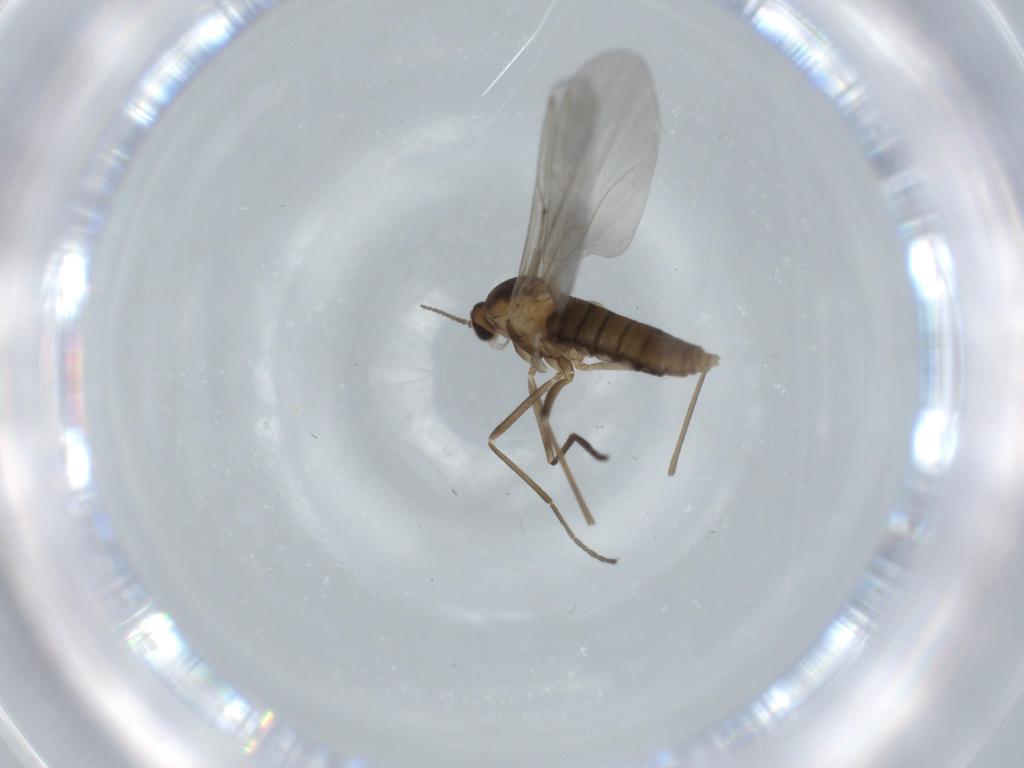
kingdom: Animalia
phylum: Arthropoda
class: Insecta
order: Diptera
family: Cecidomyiidae
